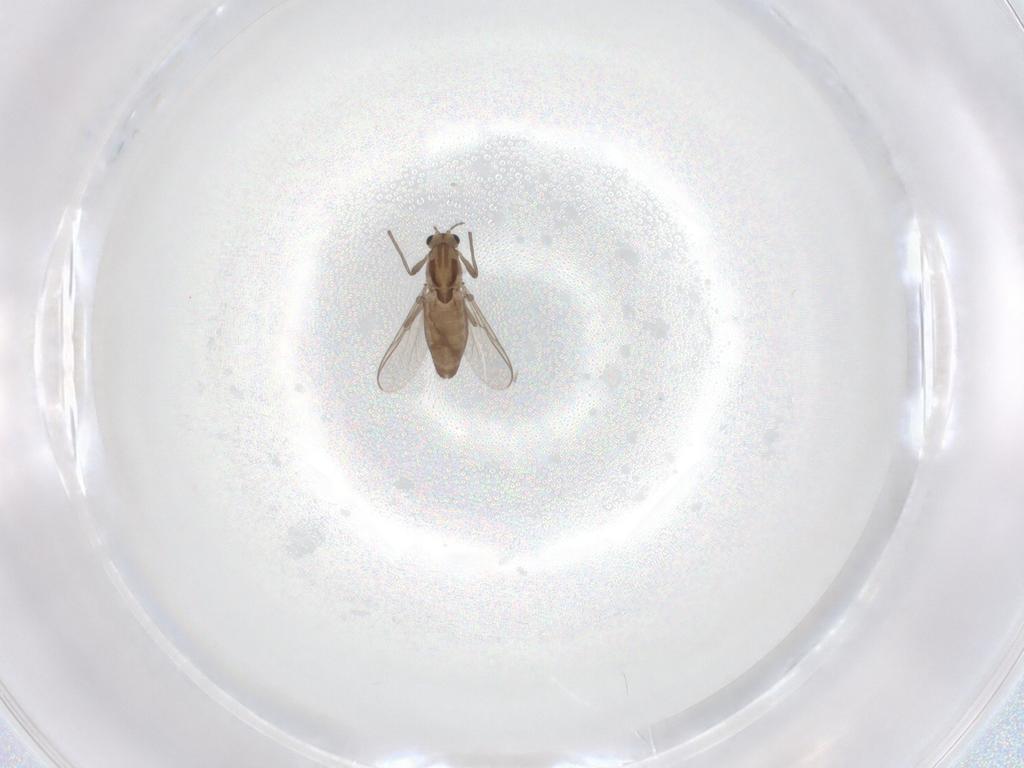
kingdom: Animalia
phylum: Arthropoda
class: Insecta
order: Diptera
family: Chironomidae
